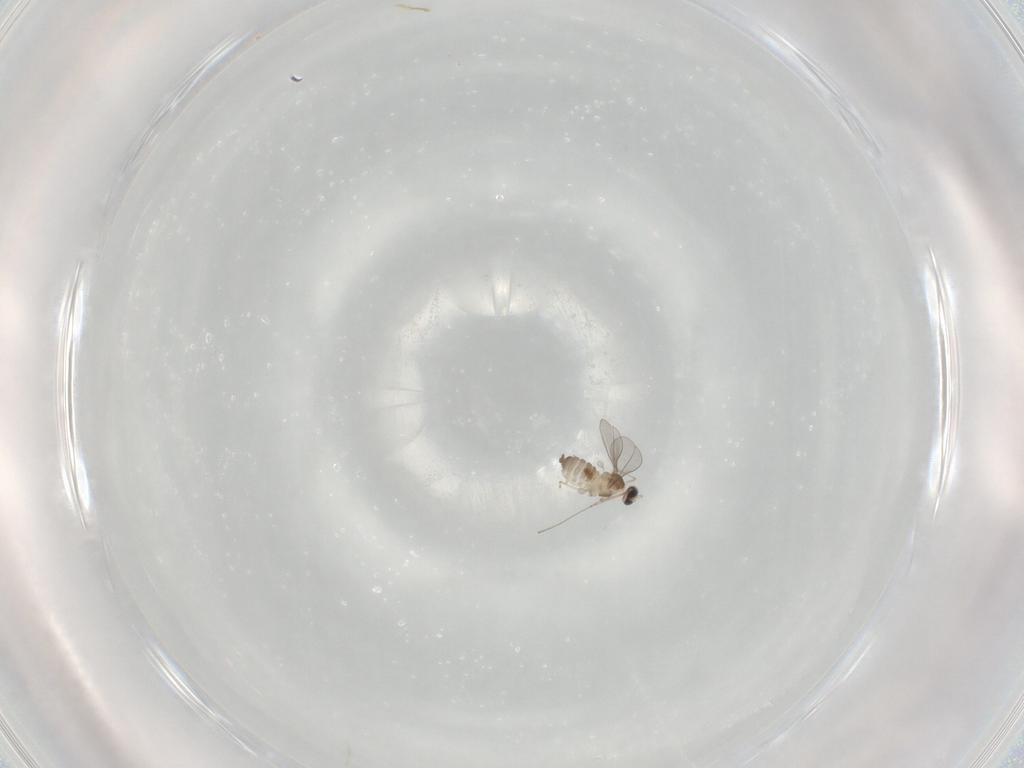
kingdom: Animalia
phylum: Arthropoda
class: Insecta
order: Diptera
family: Cecidomyiidae
